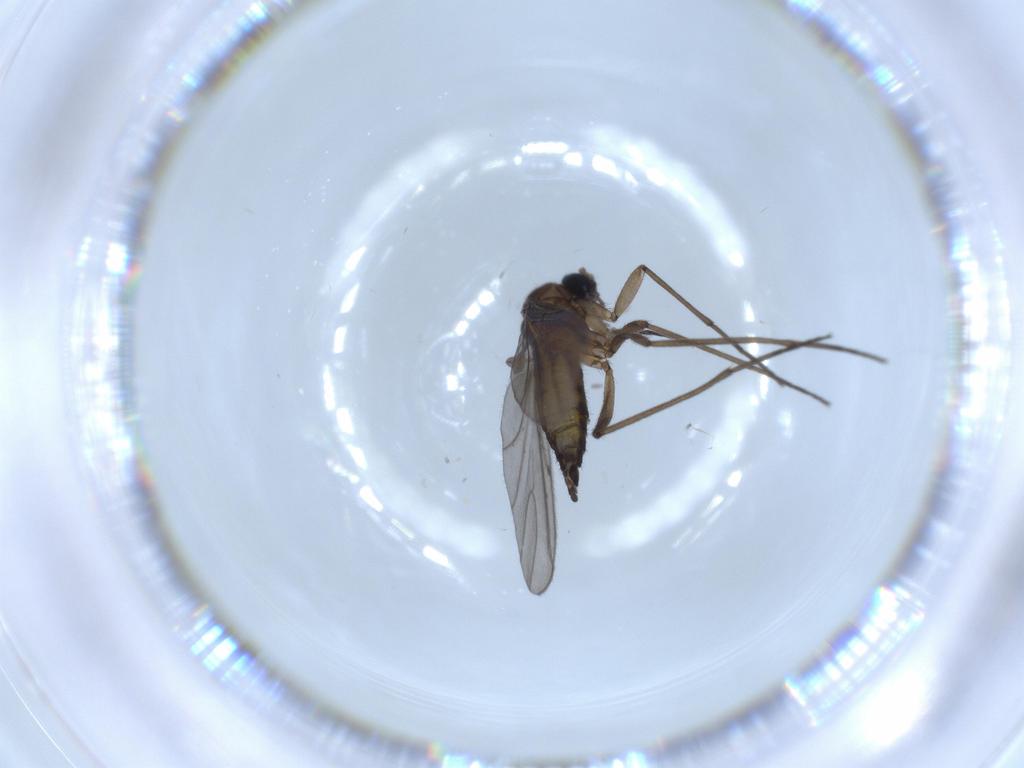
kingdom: Animalia
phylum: Arthropoda
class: Insecta
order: Diptera
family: Sciaridae
